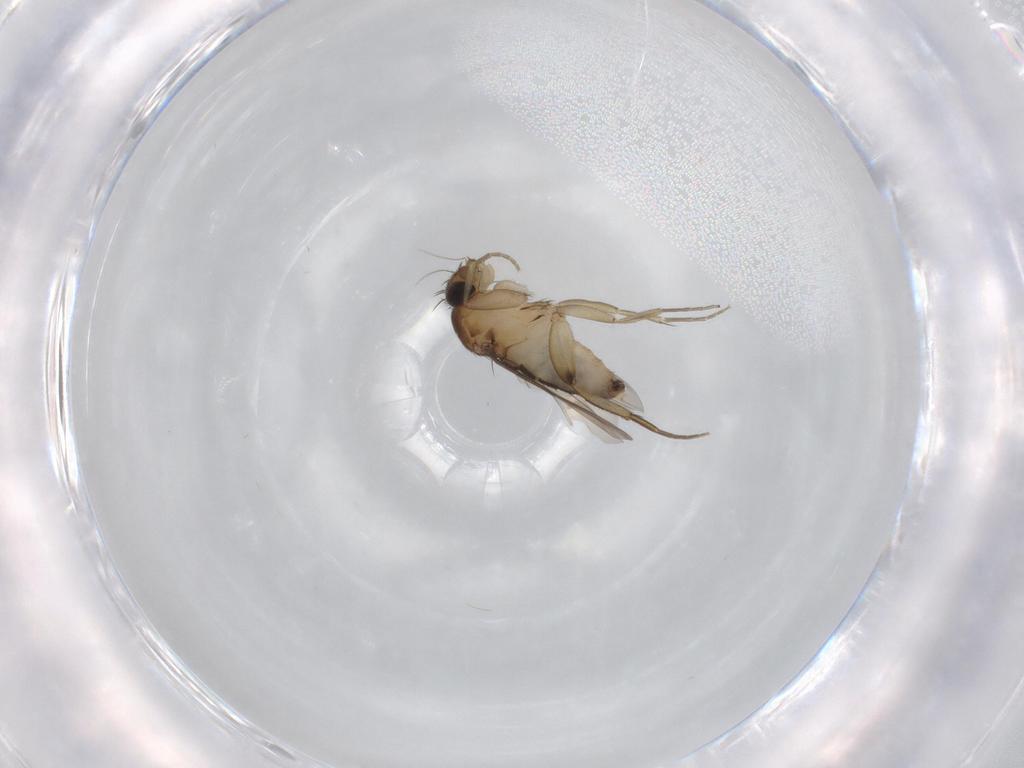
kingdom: Animalia
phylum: Arthropoda
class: Insecta
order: Diptera
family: Phoridae
